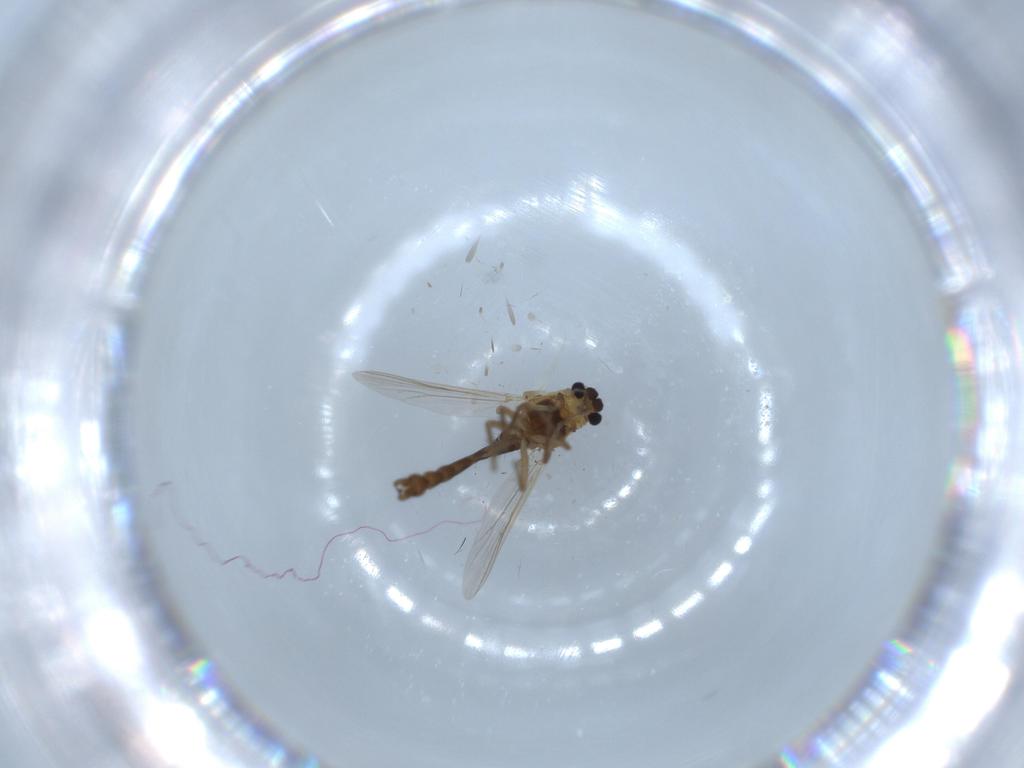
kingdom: Animalia
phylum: Arthropoda
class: Insecta
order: Diptera
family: Chironomidae
